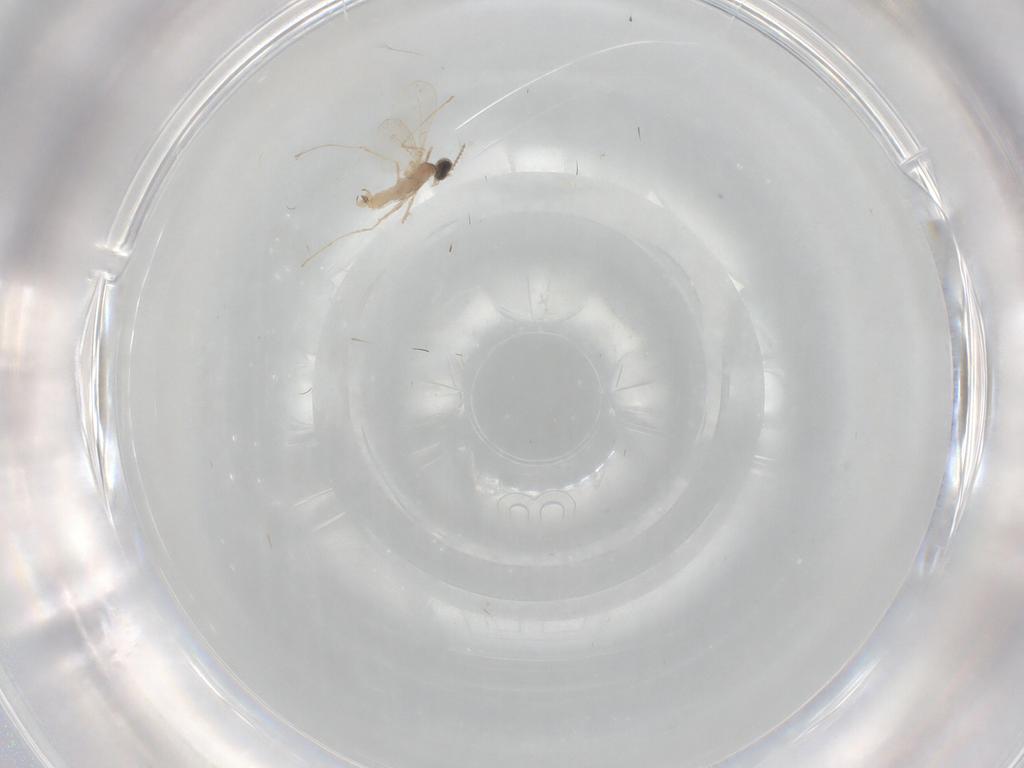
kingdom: Animalia
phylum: Arthropoda
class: Insecta
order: Diptera
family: Cecidomyiidae
